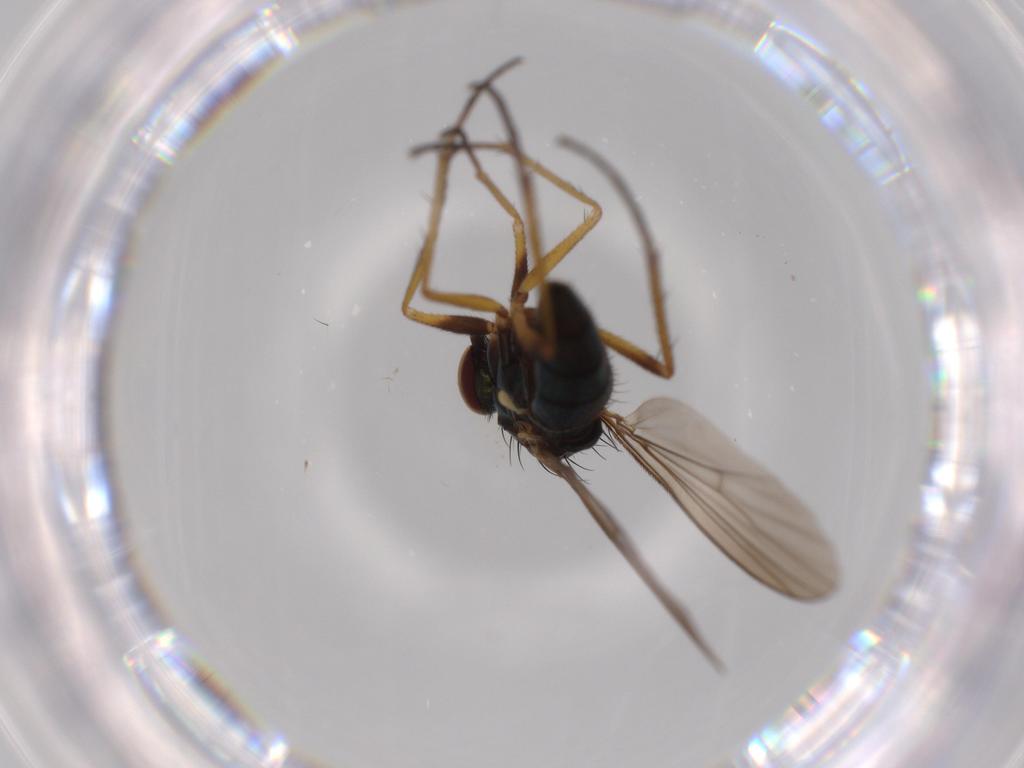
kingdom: Animalia
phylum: Arthropoda
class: Insecta
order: Diptera
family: Dolichopodidae
